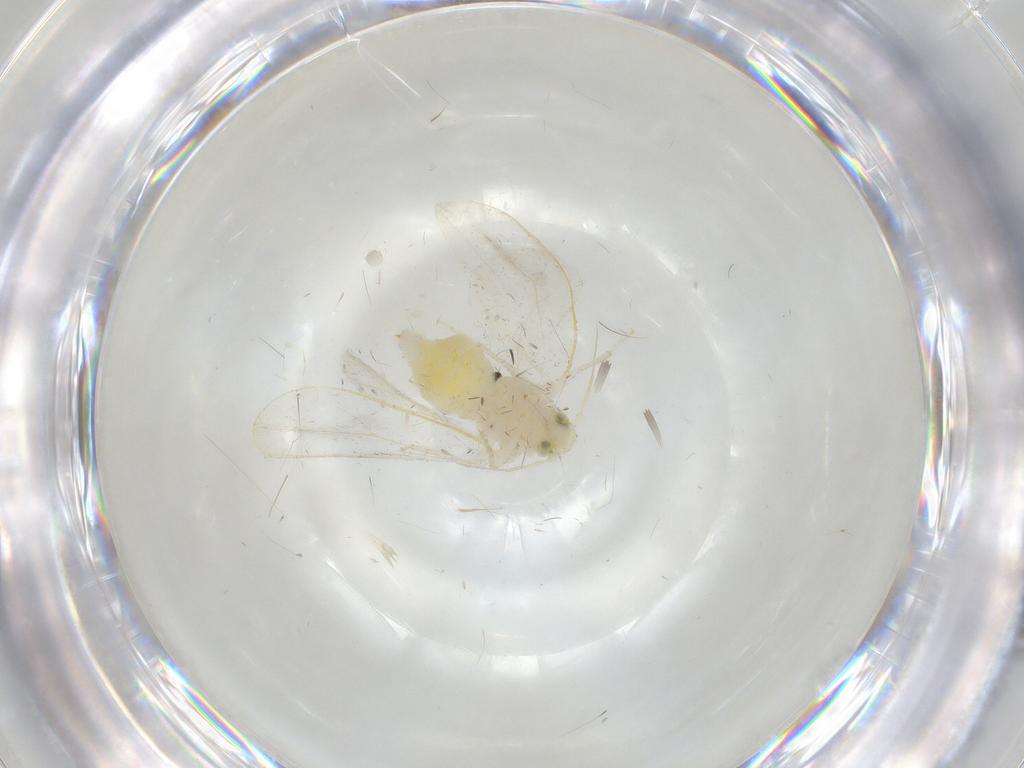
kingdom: Animalia
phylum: Arthropoda
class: Insecta
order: Hemiptera
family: Aleyrodidae
